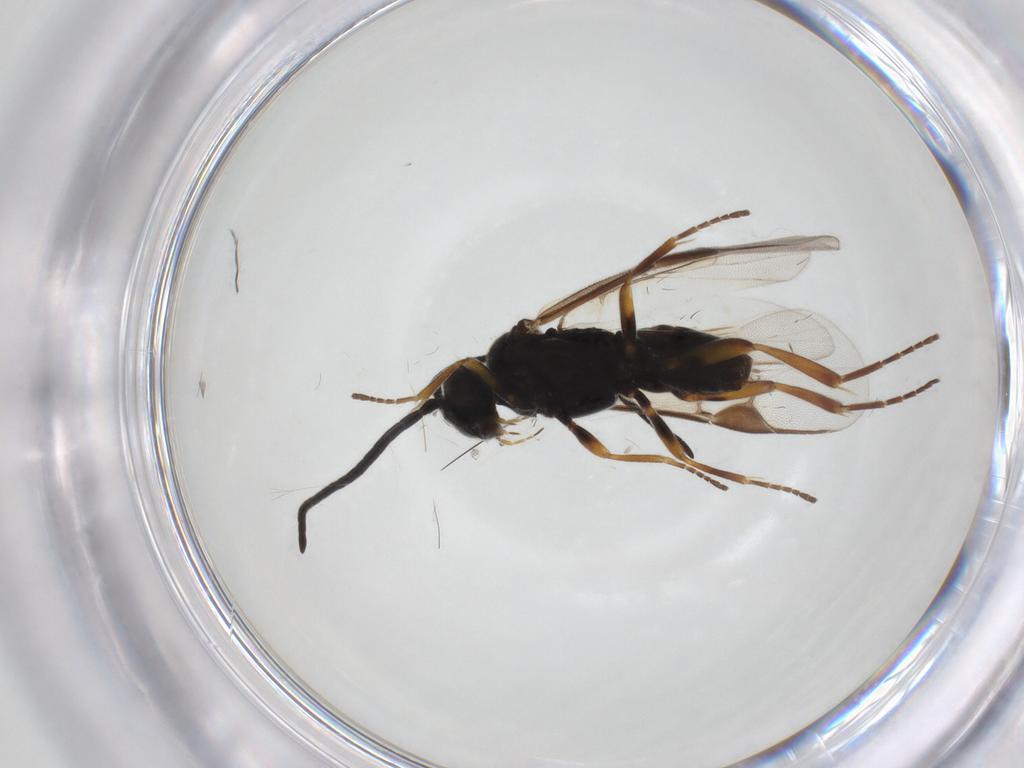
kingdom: Animalia
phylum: Arthropoda
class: Insecta
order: Hymenoptera
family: Braconidae
